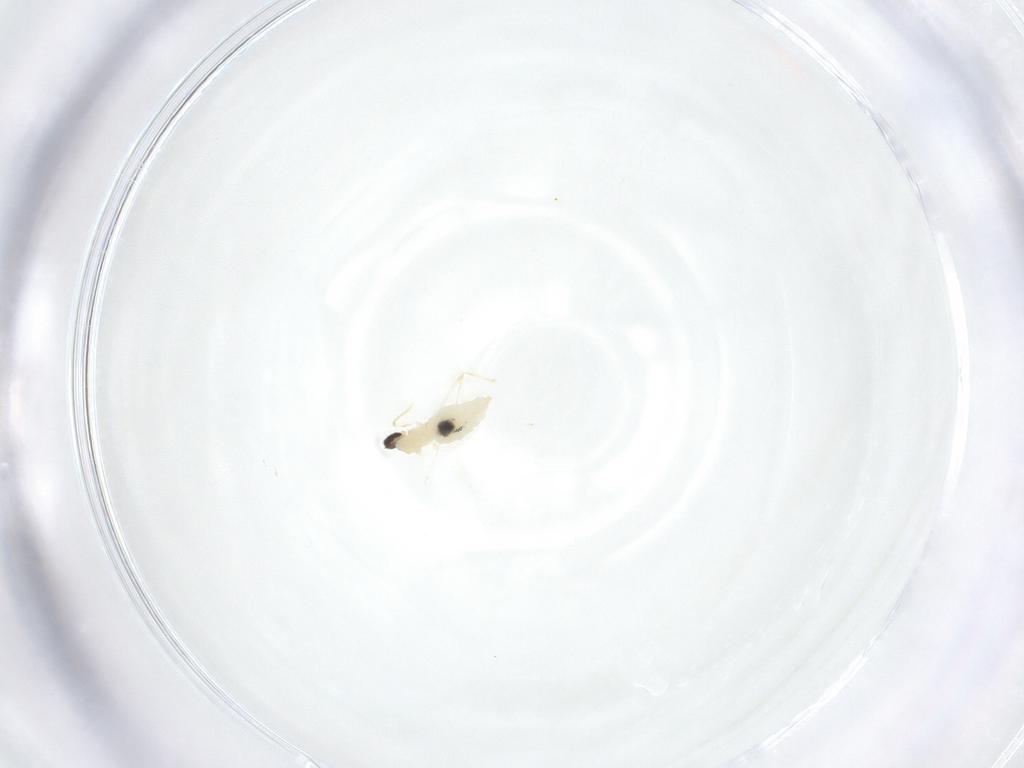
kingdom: Animalia
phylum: Arthropoda
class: Insecta
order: Diptera
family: Cecidomyiidae
